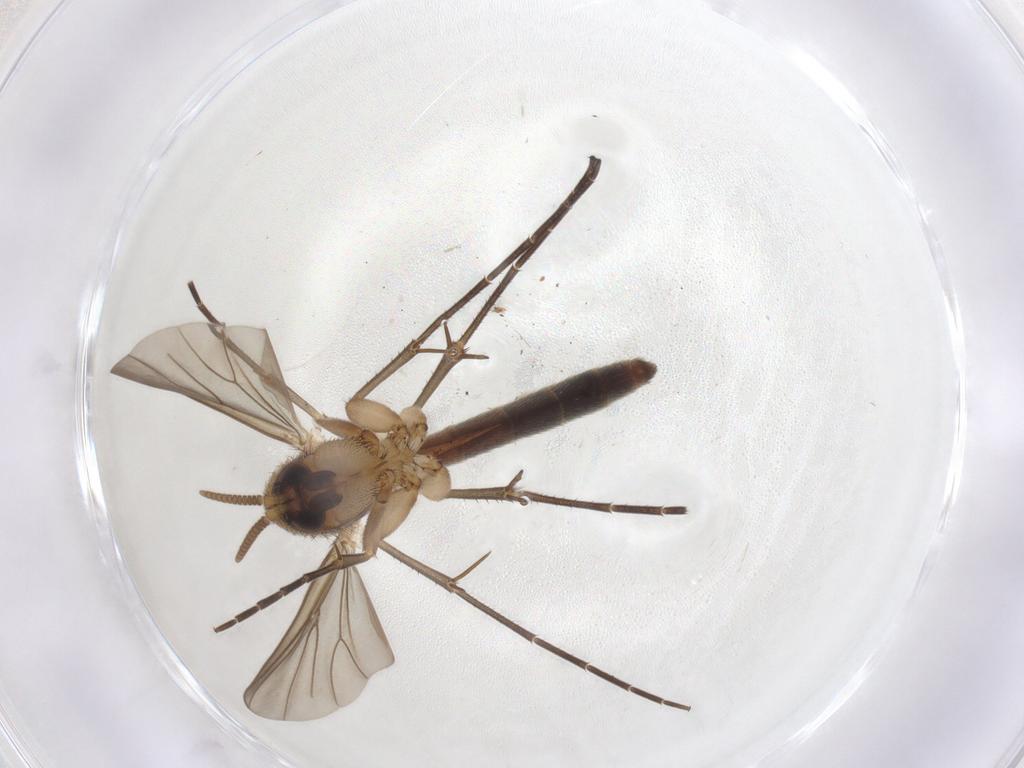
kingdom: Animalia
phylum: Arthropoda
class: Insecta
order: Diptera
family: Mycetophilidae
